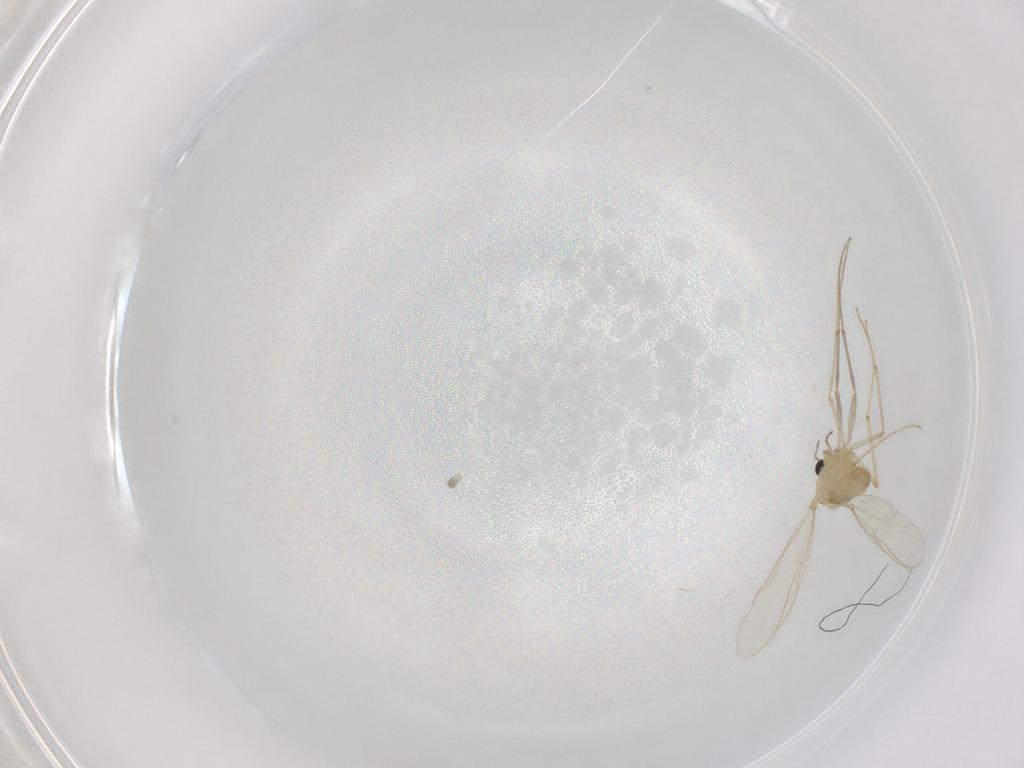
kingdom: Animalia
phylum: Arthropoda
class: Insecta
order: Diptera
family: Chironomidae
